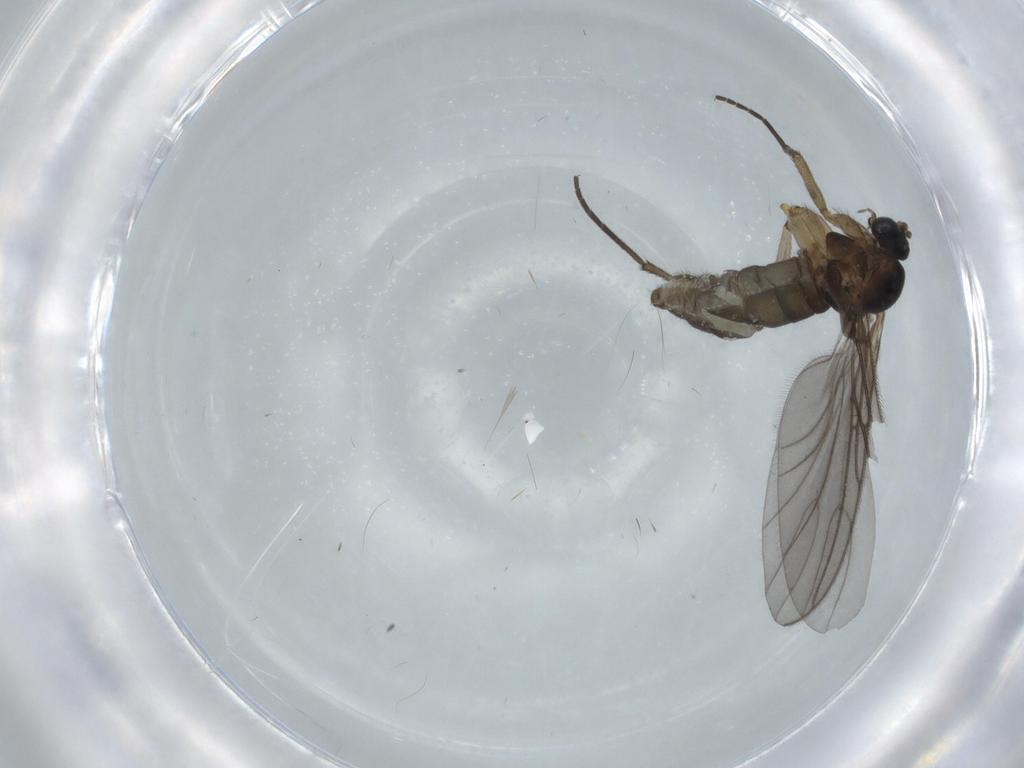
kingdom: Animalia
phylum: Arthropoda
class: Insecta
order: Diptera
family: Sciaridae
